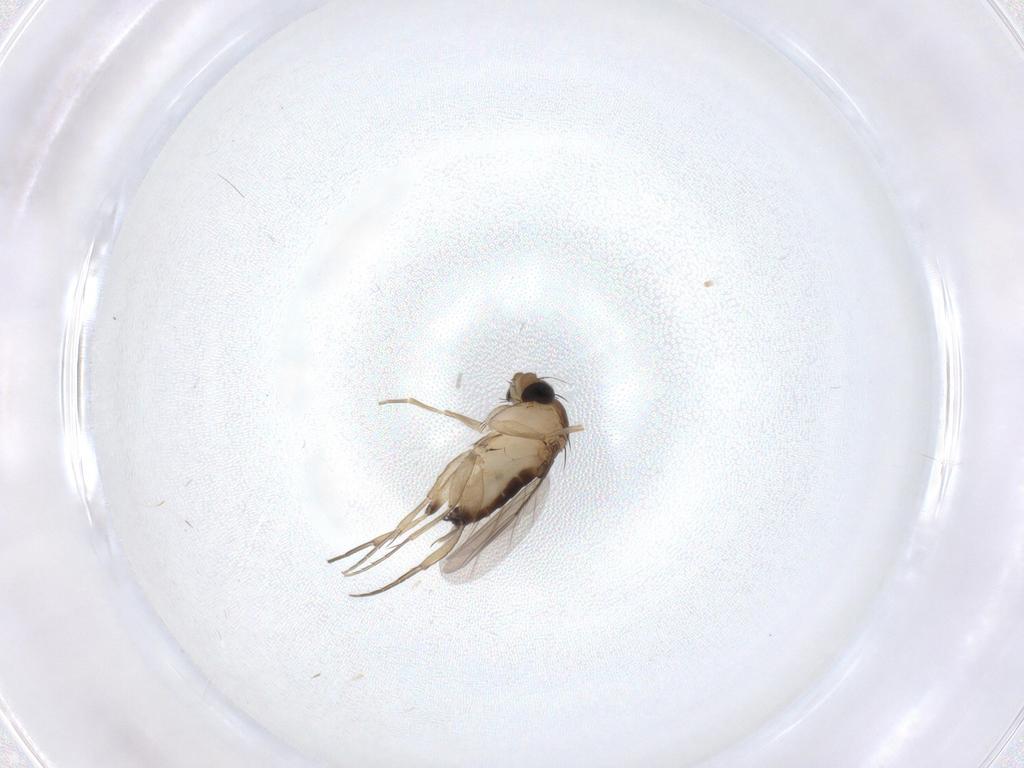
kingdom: Animalia
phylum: Arthropoda
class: Insecta
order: Diptera
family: Phoridae
